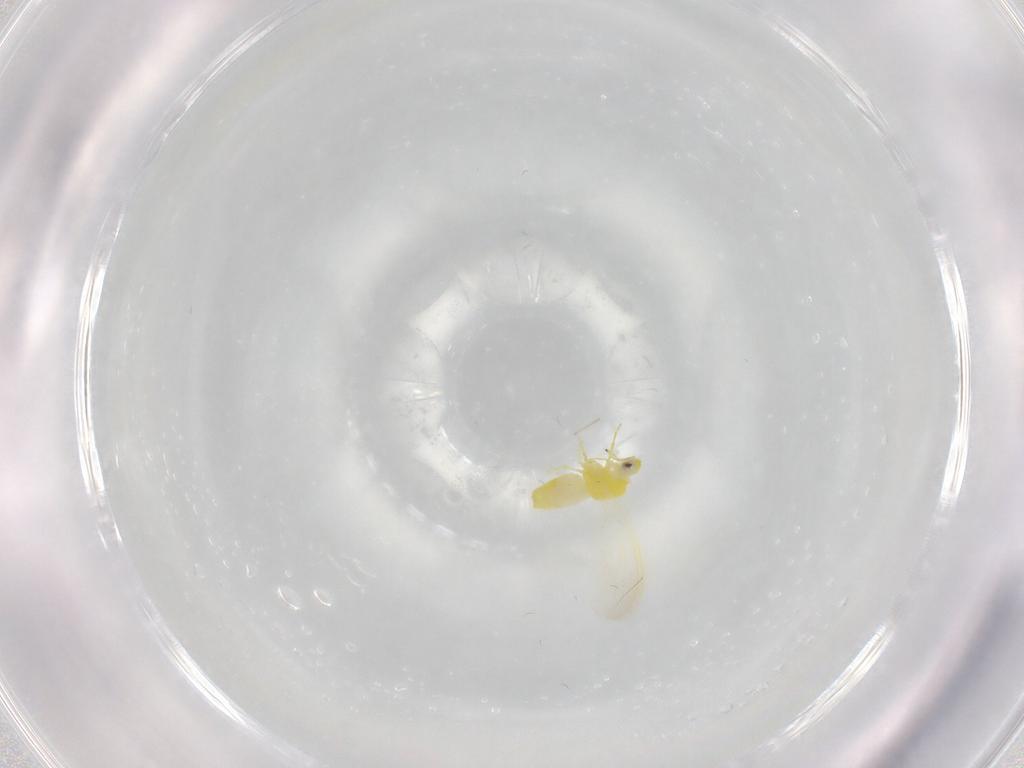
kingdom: Animalia
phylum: Arthropoda
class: Insecta
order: Hemiptera
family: Aleyrodidae
